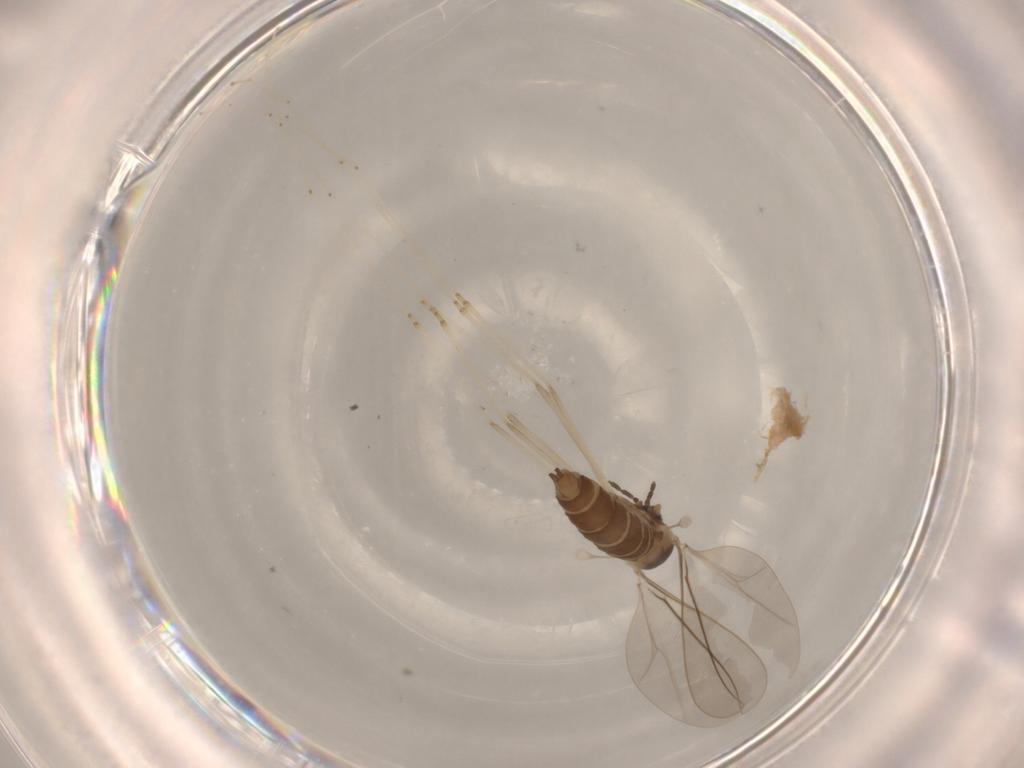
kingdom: Animalia
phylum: Arthropoda
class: Insecta
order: Diptera
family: Cecidomyiidae
